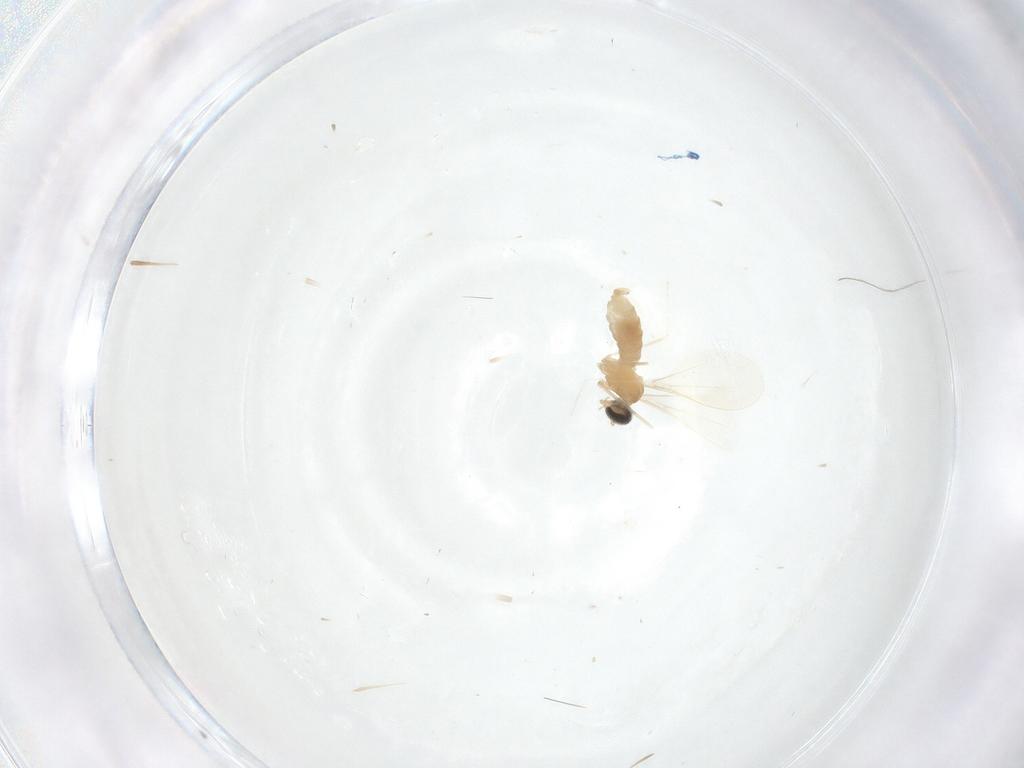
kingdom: Animalia
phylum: Arthropoda
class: Insecta
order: Diptera
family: Cecidomyiidae
